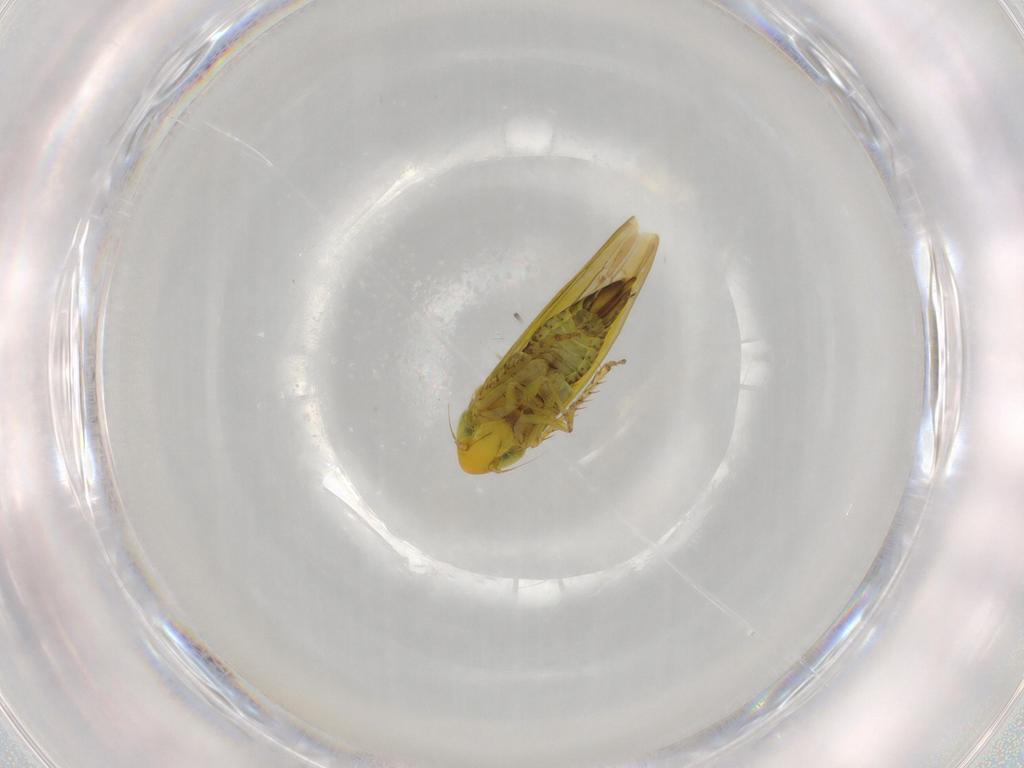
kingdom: Animalia
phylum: Arthropoda
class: Insecta
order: Hemiptera
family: Cicadellidae
